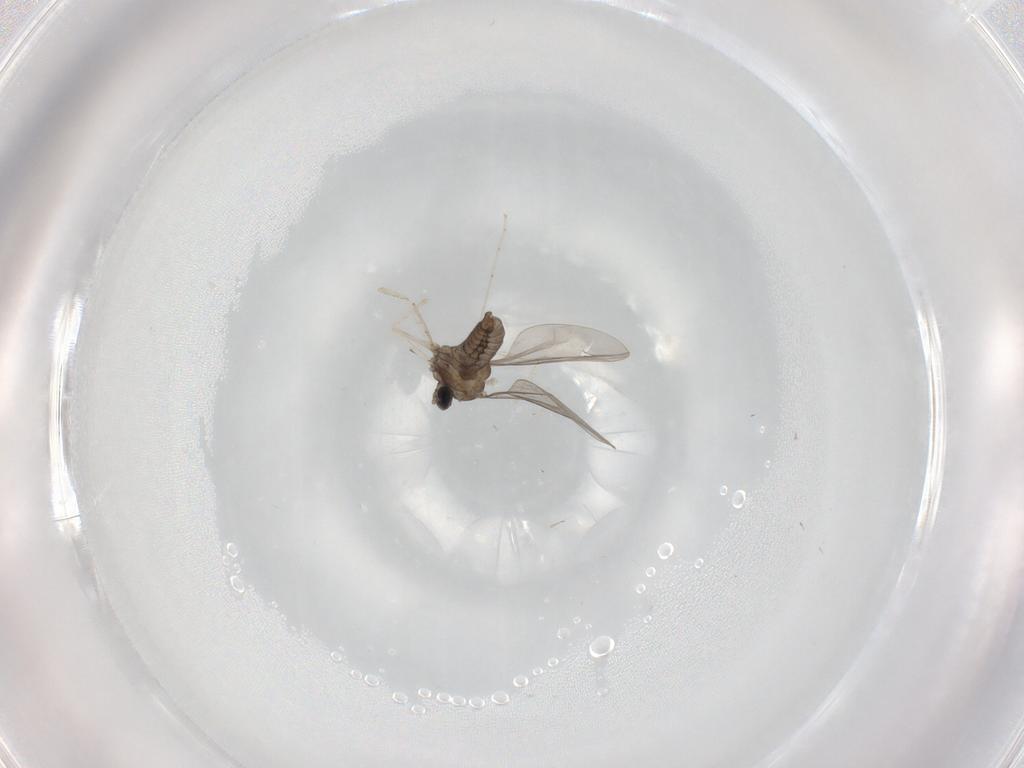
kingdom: Animalia
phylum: Arthropoda
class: Insecta
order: Diptera
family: Cecidomyiidae
